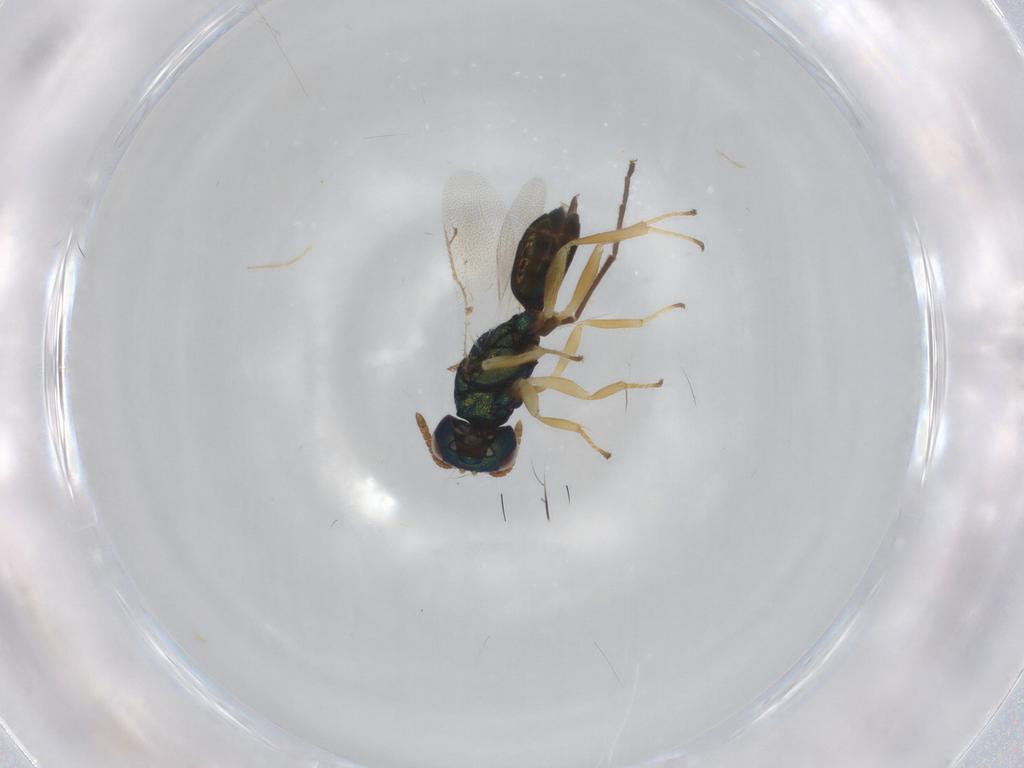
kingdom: Animalia
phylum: Arthropoda
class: Insecta
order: Hymenoptera
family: Pteromalidae
